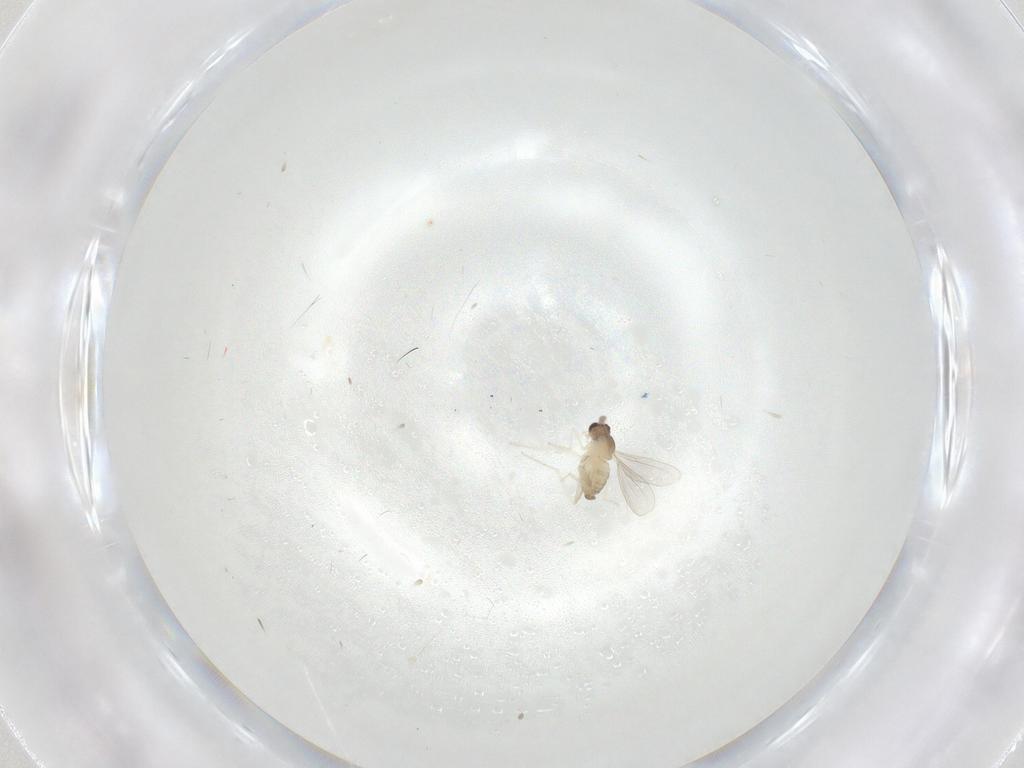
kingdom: Animalia
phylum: Arthropoda
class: Insecta
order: Diptera
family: Cecidomyiidae
